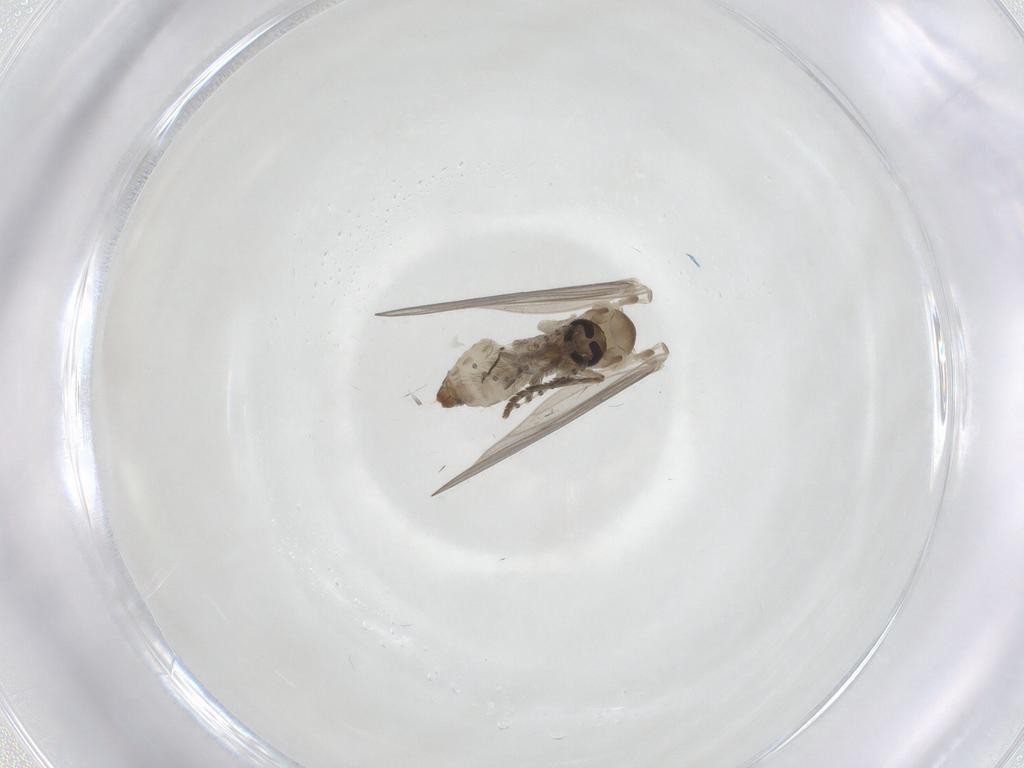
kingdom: Animalia
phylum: Arthropoda
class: Insecta
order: Diptera
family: Psychodidae
